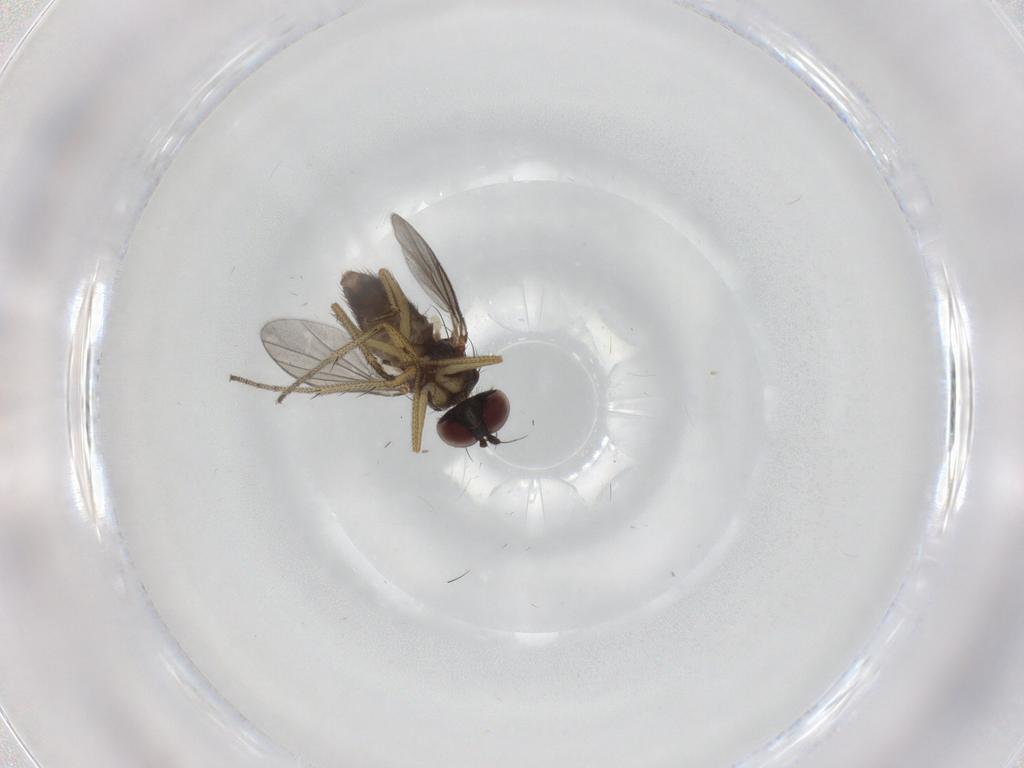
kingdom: Animalia
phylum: Arthropoda
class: Insecta
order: Diptera
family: Dolichopodidae
